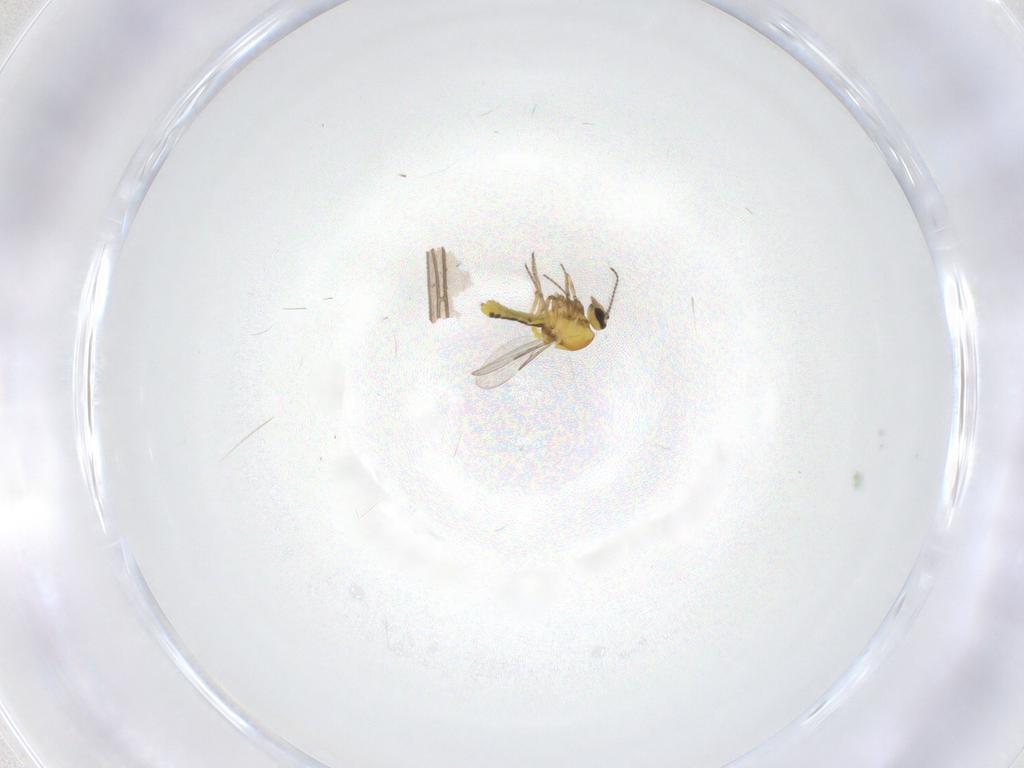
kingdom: Animalia
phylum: Arthropoda
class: Insecta
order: Diptera
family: Ceratopogonidae
